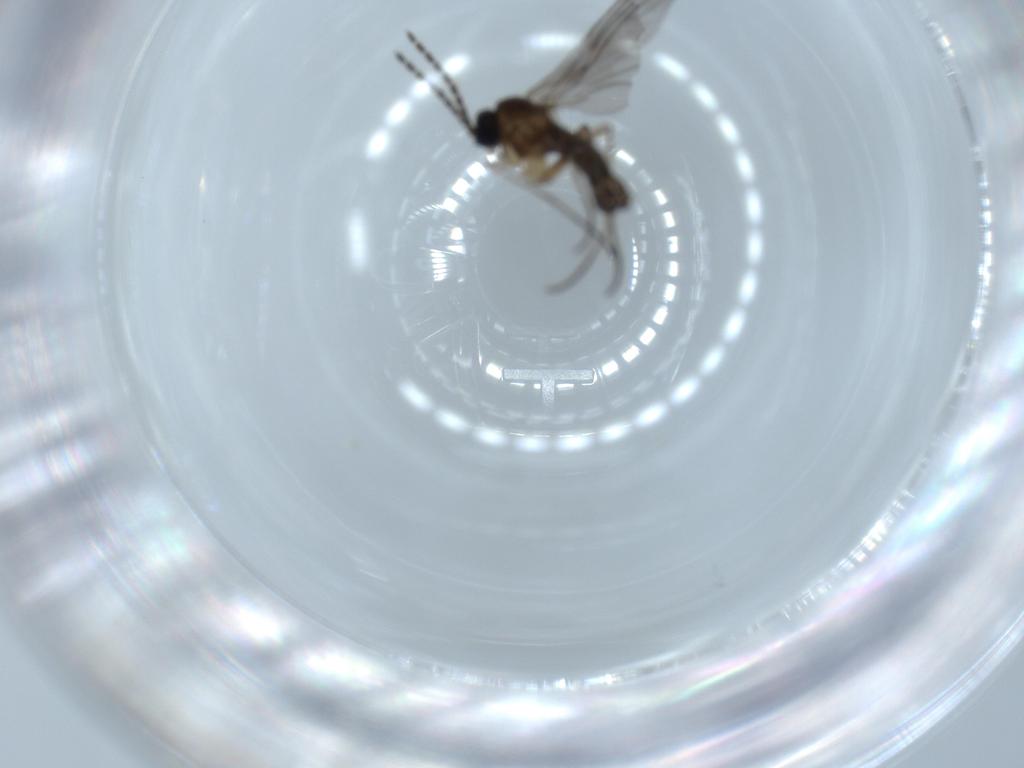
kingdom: Animalia
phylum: Arthropoda
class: Insecta
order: Diptera
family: Sciaridae
